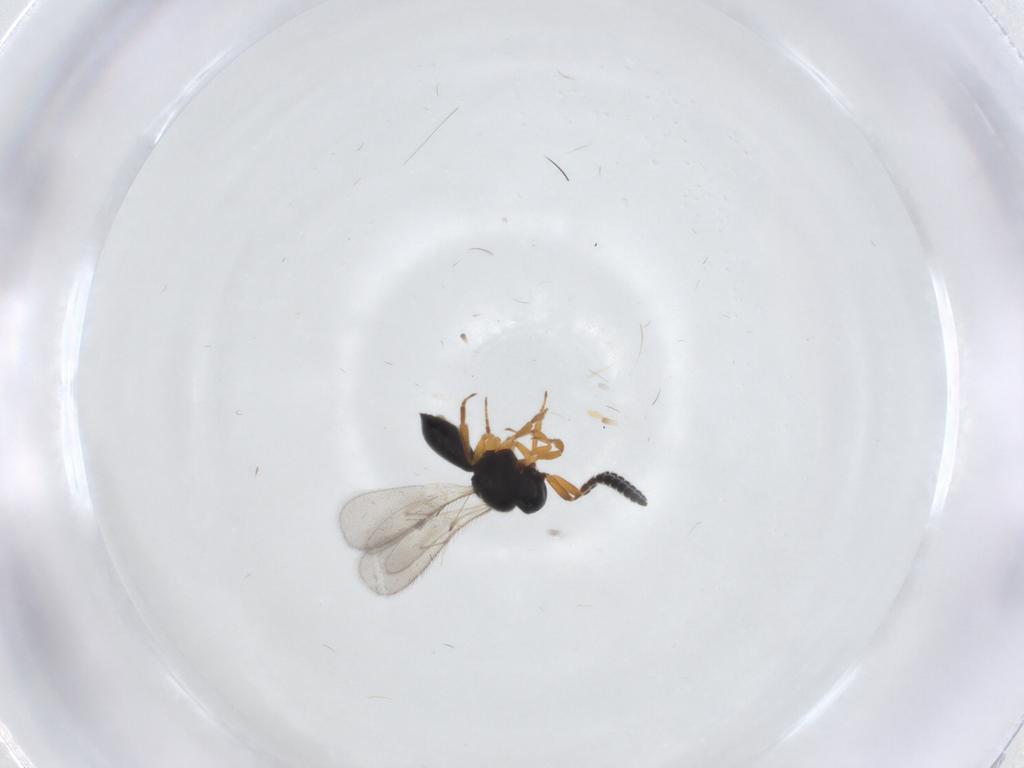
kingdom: Animalia
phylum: Arthropoda
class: Insecta
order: Hymenoptera
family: Scelionidae
